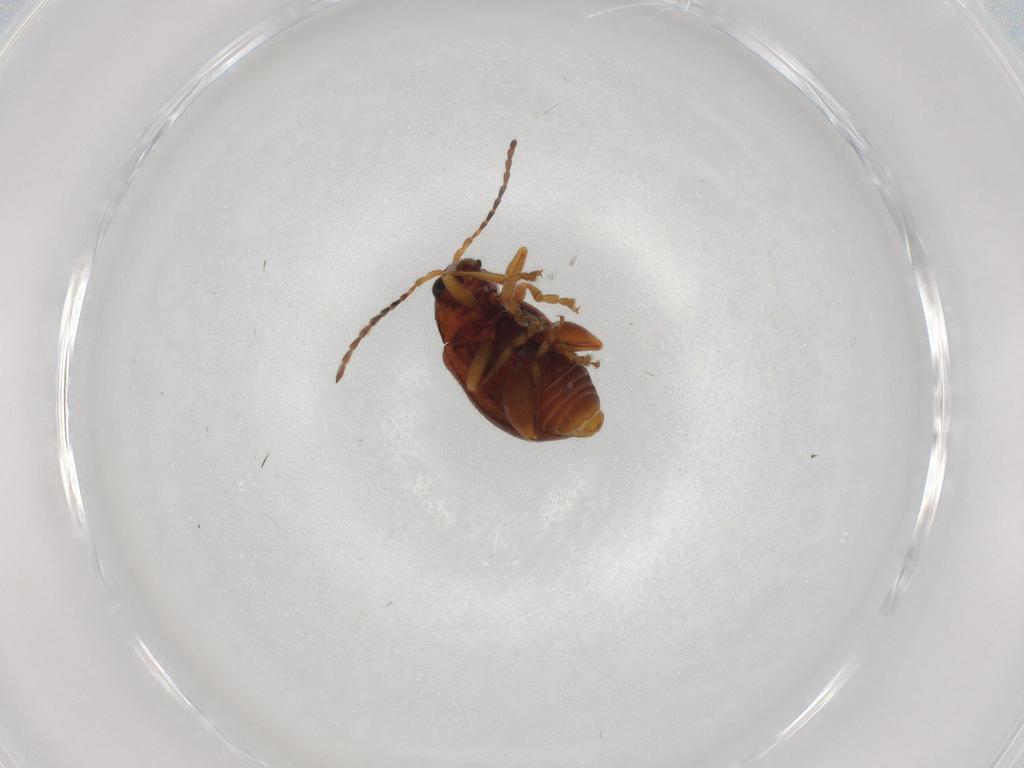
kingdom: Animalia
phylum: Arthropoda
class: Insecta
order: Coleoptera
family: Chrysomelidae
